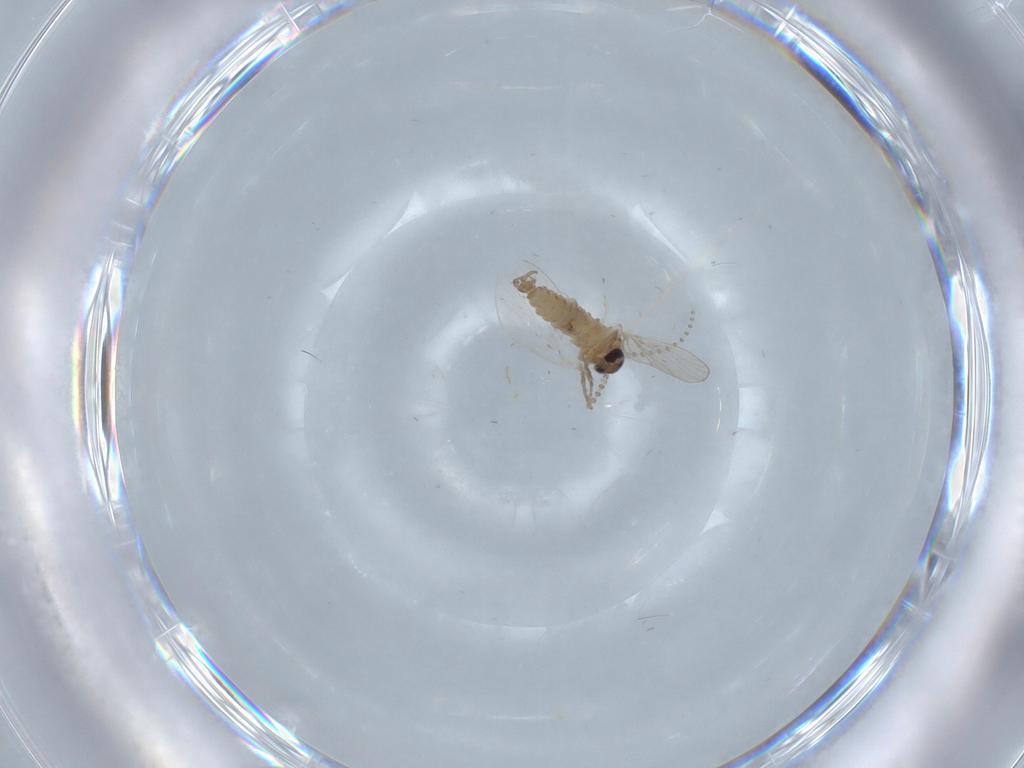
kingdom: Animalia
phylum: Arthropoda
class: Insecta
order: Diptera
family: Psychodidae
